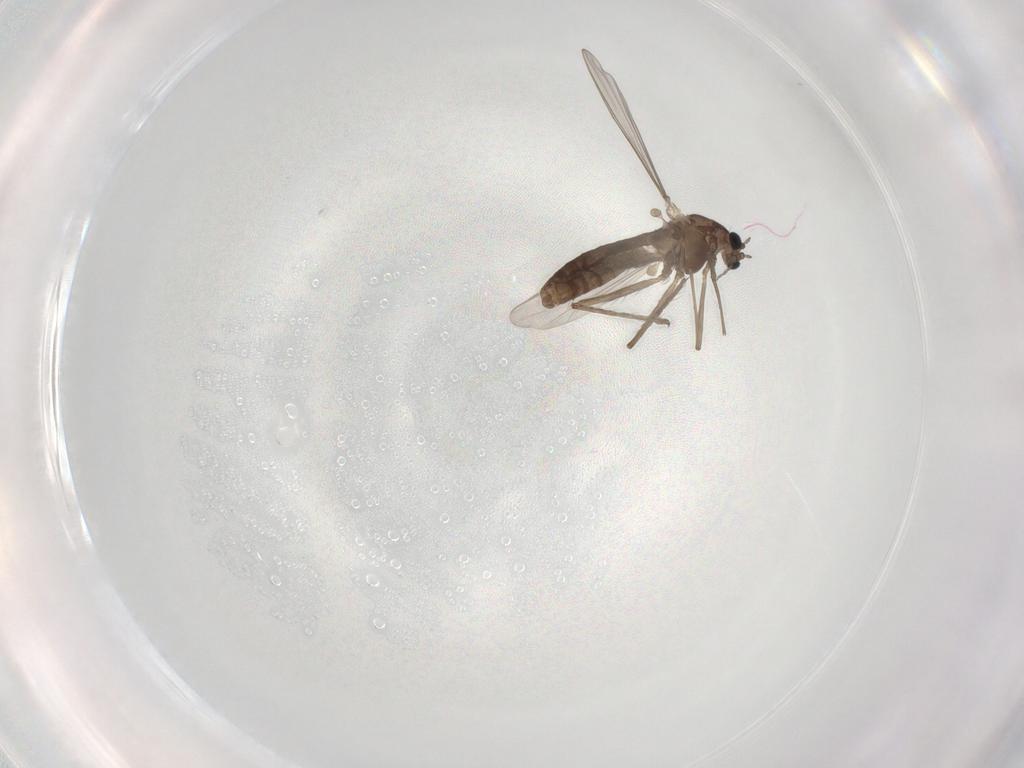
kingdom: Animalia
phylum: Arthropoda
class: Insecta
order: Diptera
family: Chironomidae
